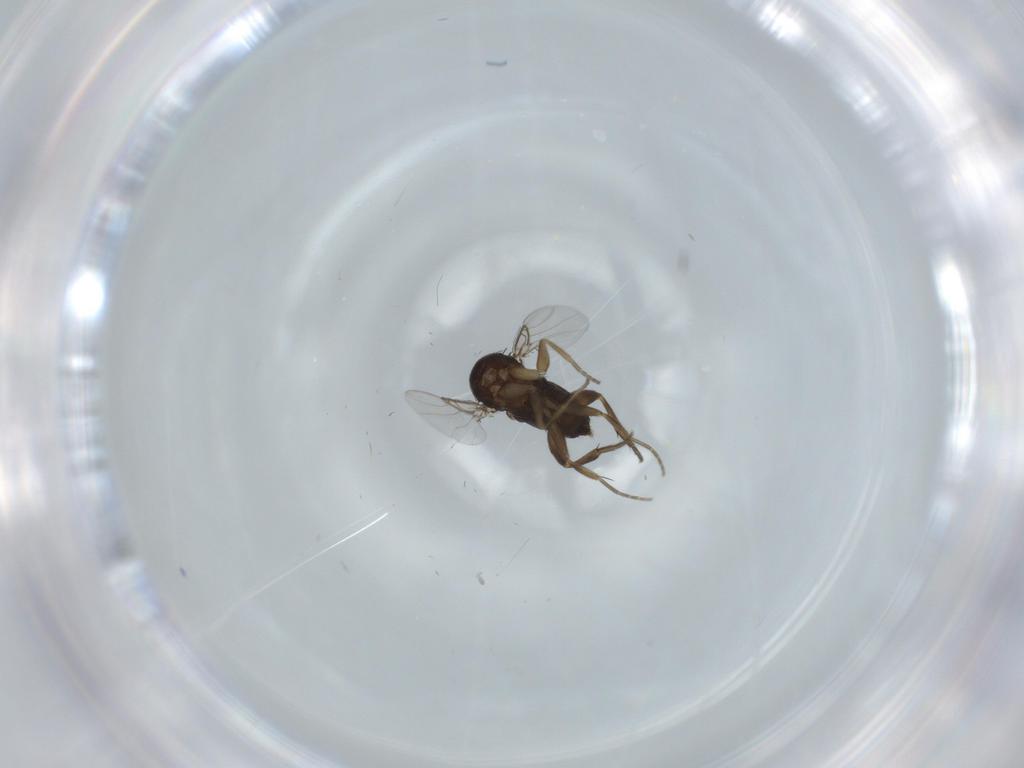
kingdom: Animalia
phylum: Arthropoda
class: Insecta
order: Diptera
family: Phoridae
